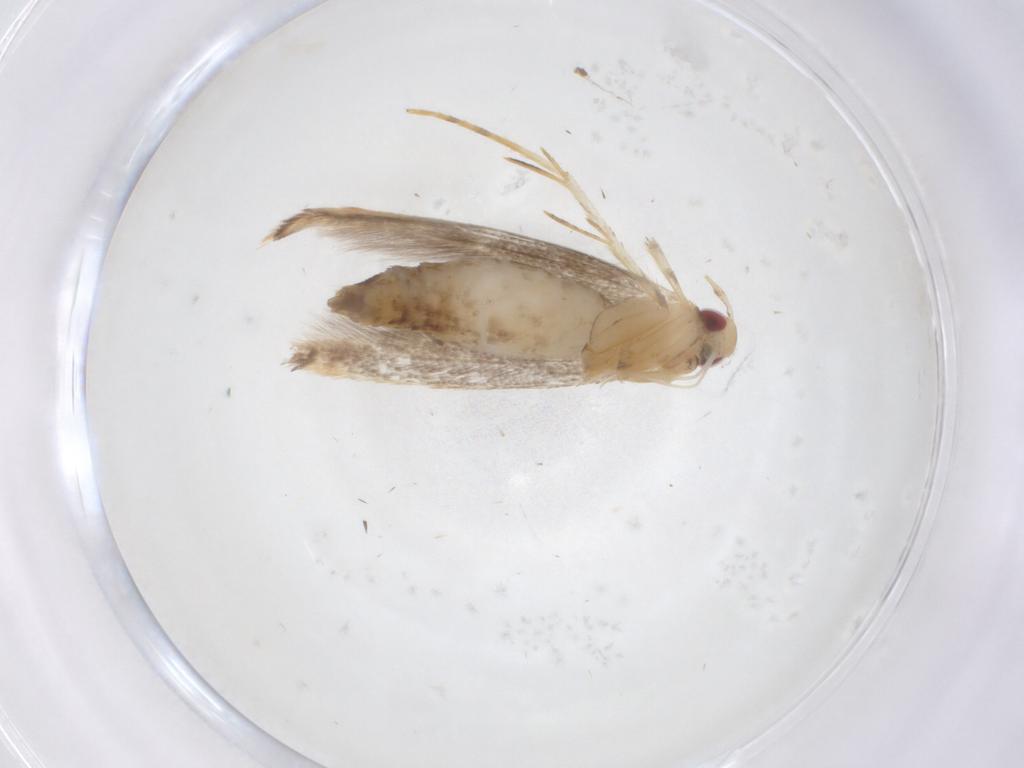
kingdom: Animalia
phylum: Arthropoda
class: Insecta
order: Lepidoptera
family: Cosmopterigidae
